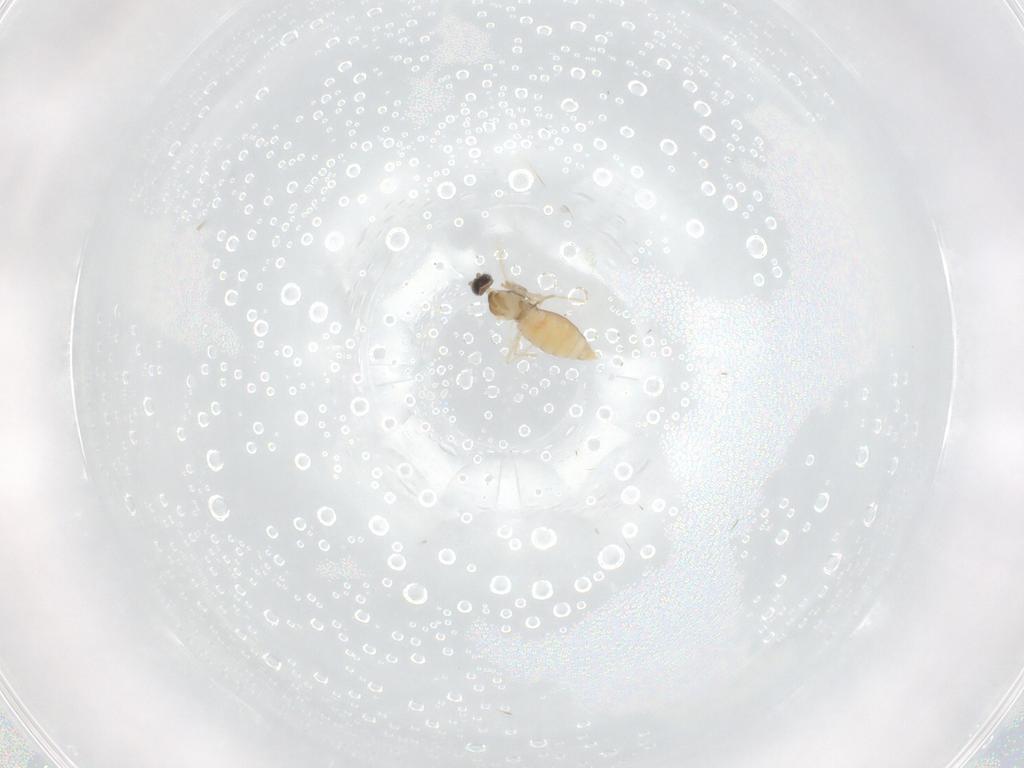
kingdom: Animalia
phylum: Arthropoda
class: Insecta
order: Diptera
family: Cecidomyiidae
